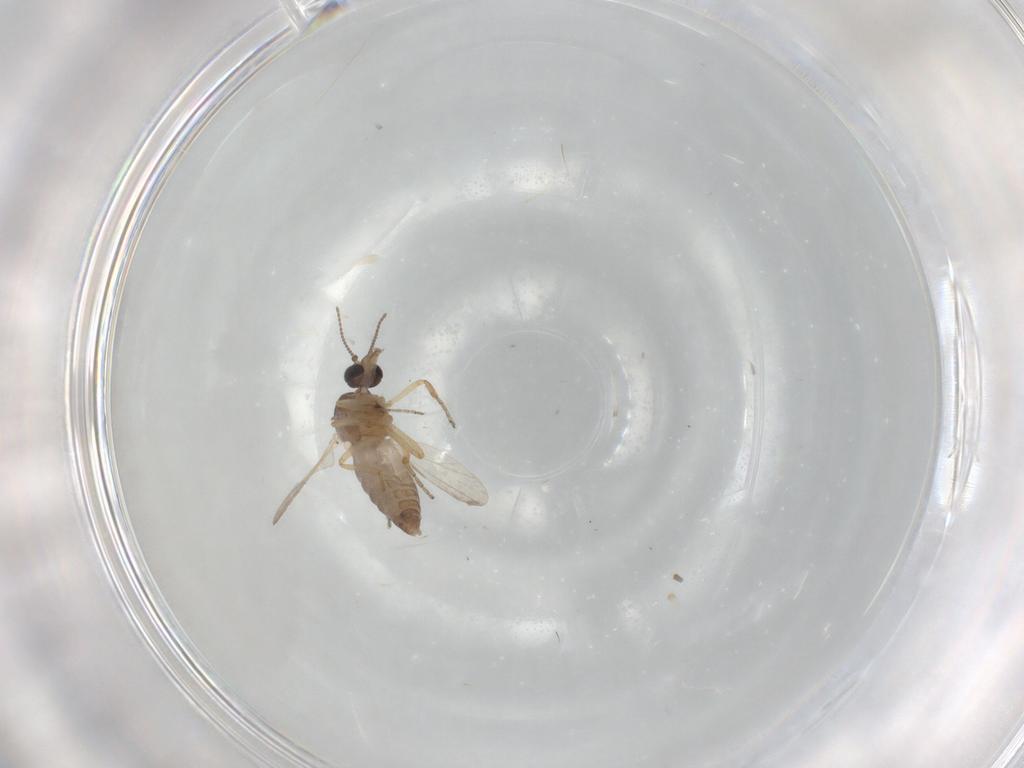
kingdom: Animalia
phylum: Arthropoda
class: Insecta
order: Diptera
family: Ceratopogonidae
